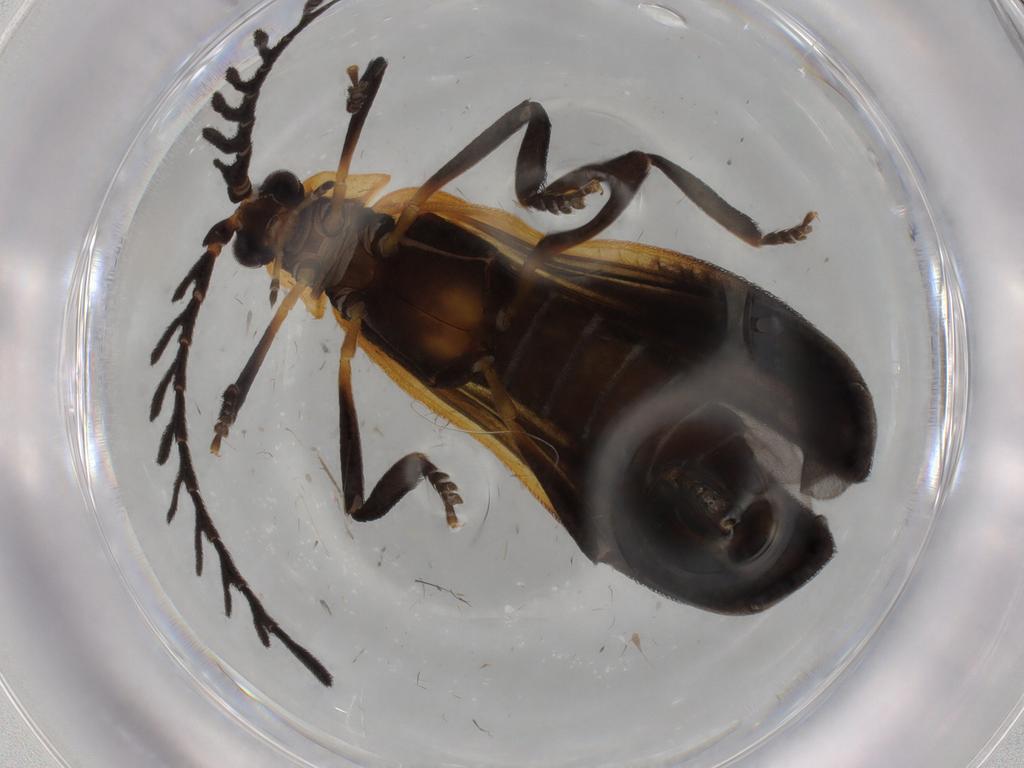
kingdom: Animalia
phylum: Arthropoda
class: Insecta
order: Coleoptera
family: Lycidae
